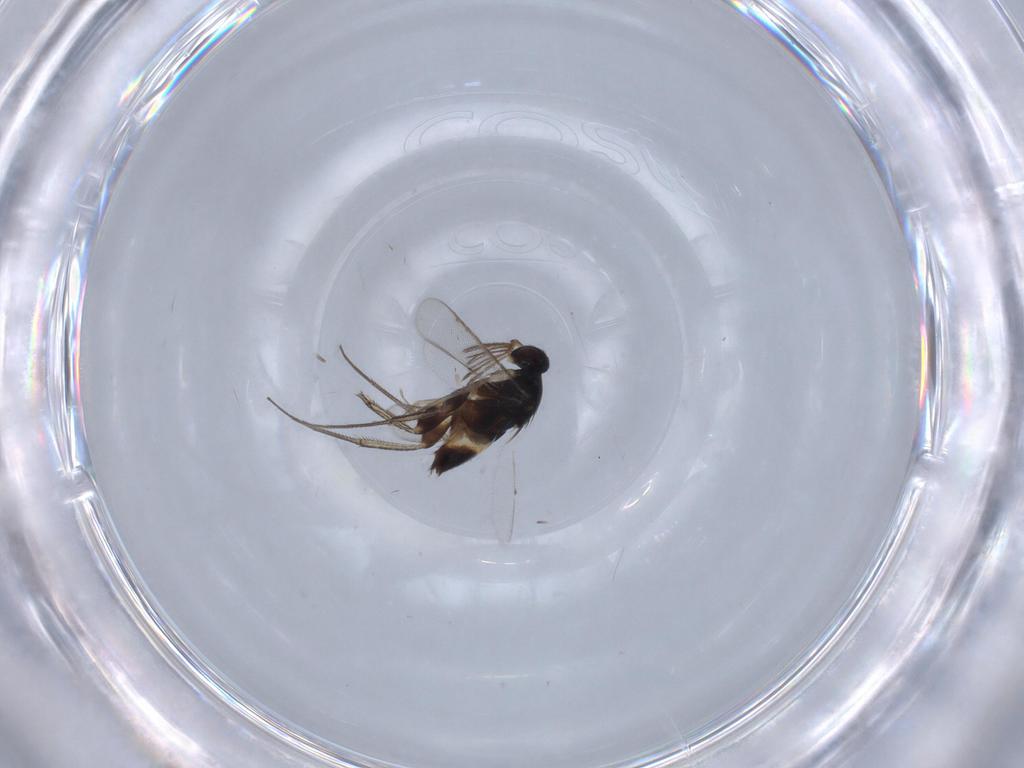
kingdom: Animalia
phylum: Arthropoda
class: Insecta
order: Hymenoptera
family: Eulophidae
